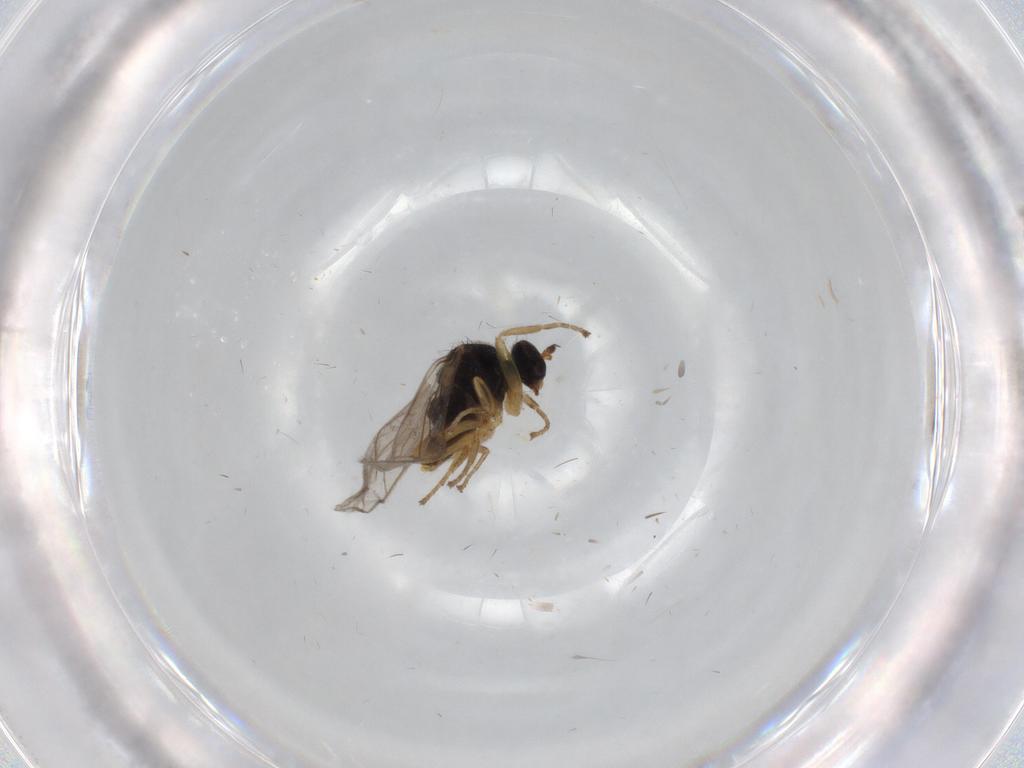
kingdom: Animalia
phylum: Arthropoda
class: Insecta
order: Diptera
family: Hybotidae
